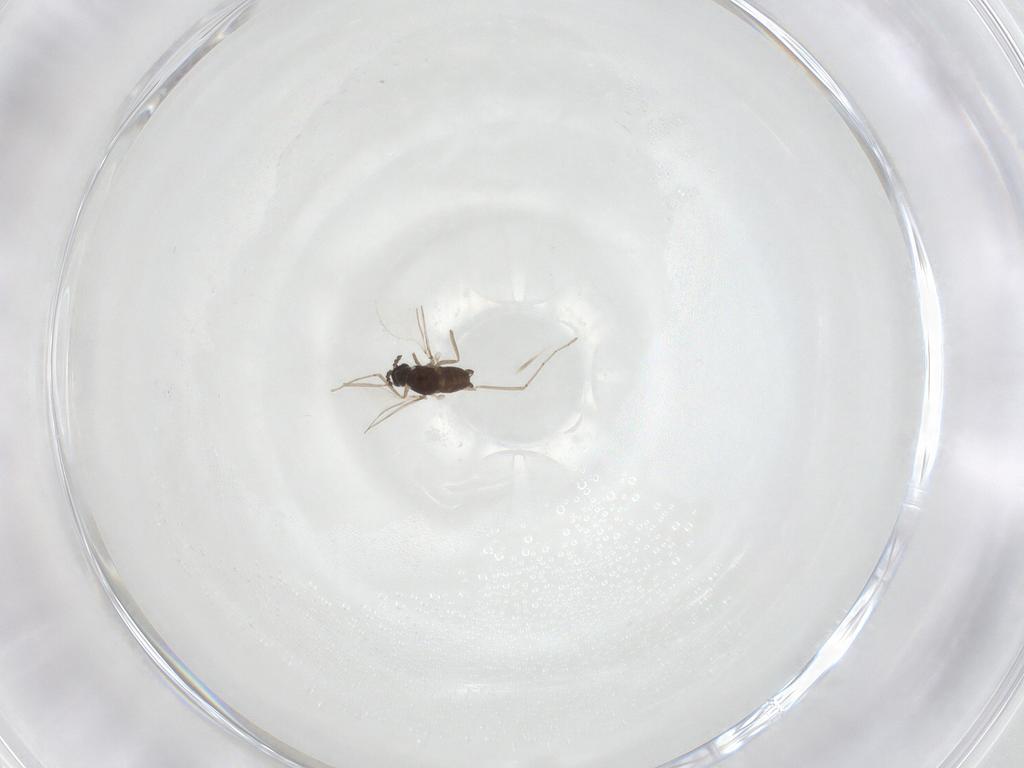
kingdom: Animalia
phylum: Arthropoda
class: Insecta
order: Diptera
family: Cecidomyiidae
